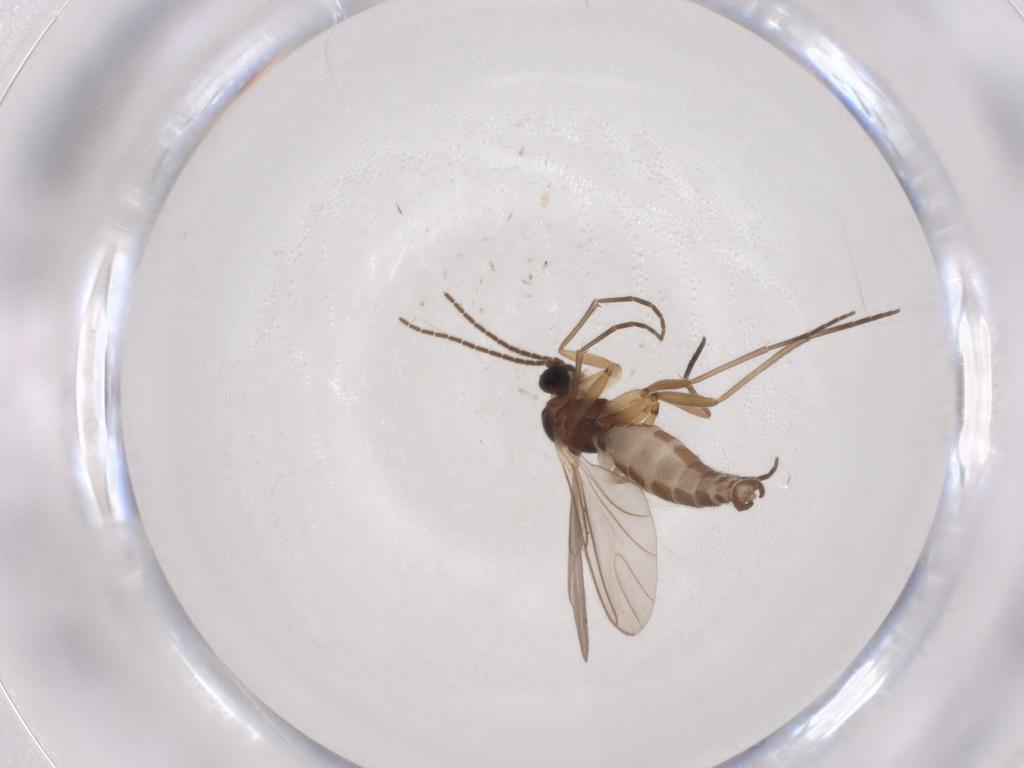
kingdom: Animalia
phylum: Arthropoda
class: Insecta
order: Diptera
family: Sciaridae
